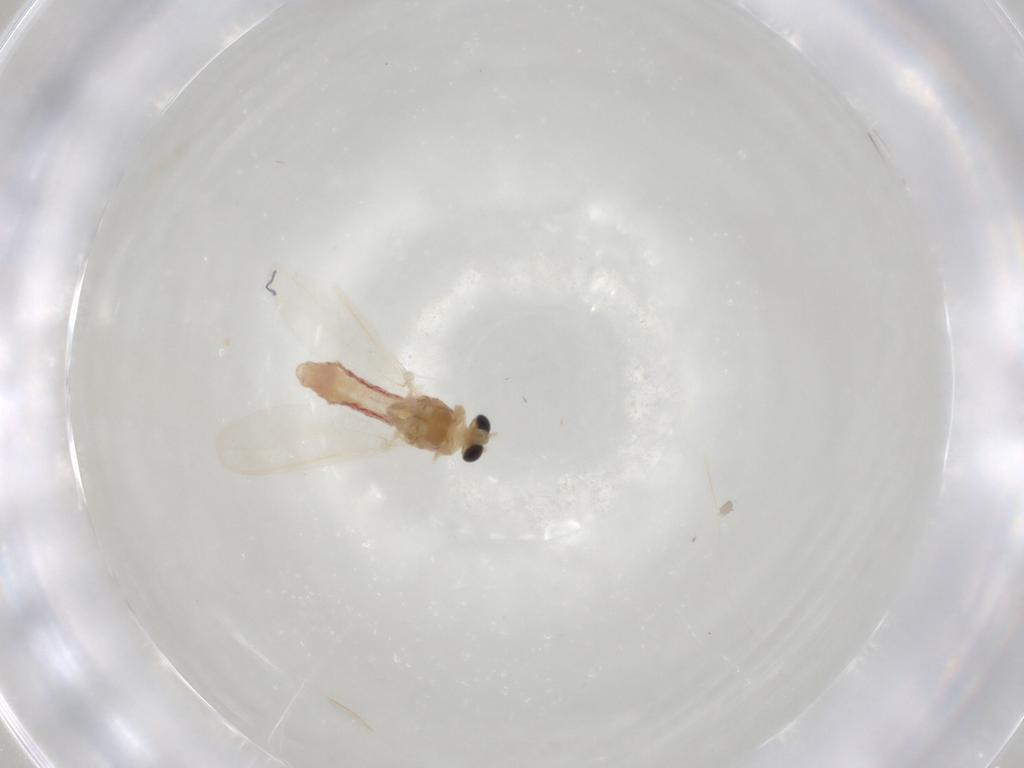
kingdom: Animalia
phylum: Arthropoda
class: Insecta
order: Diptera
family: Chironomidae
